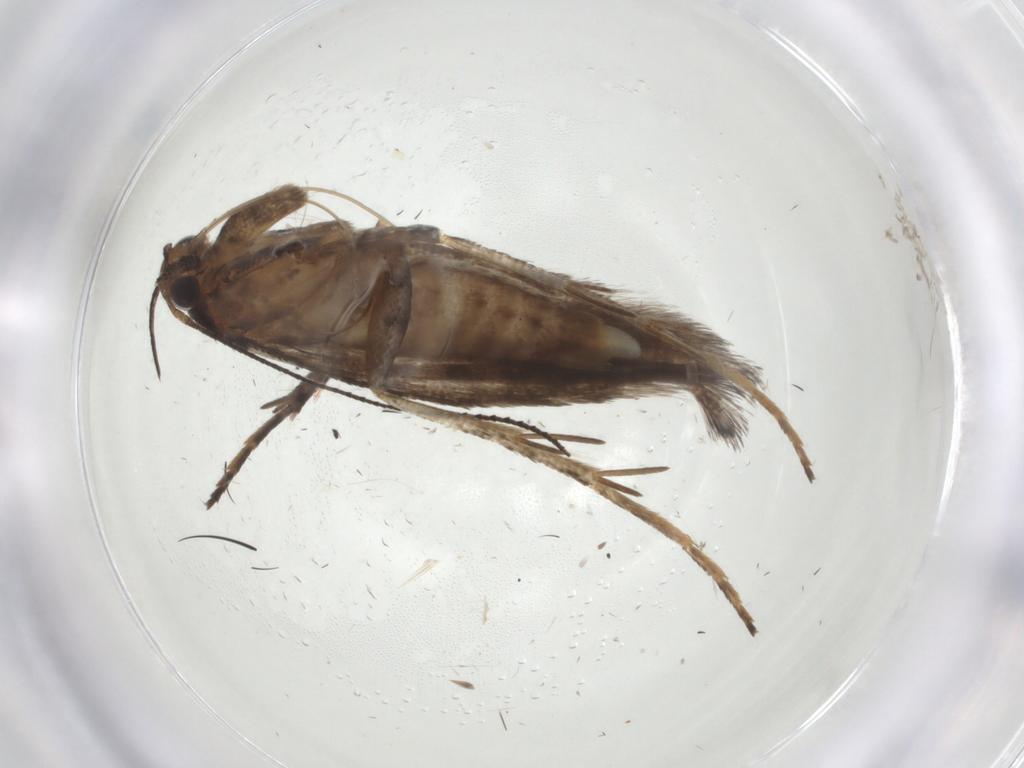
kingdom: Animalia
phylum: Arthropoda
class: Insecta
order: Lepidoptera
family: Gelechiidae
